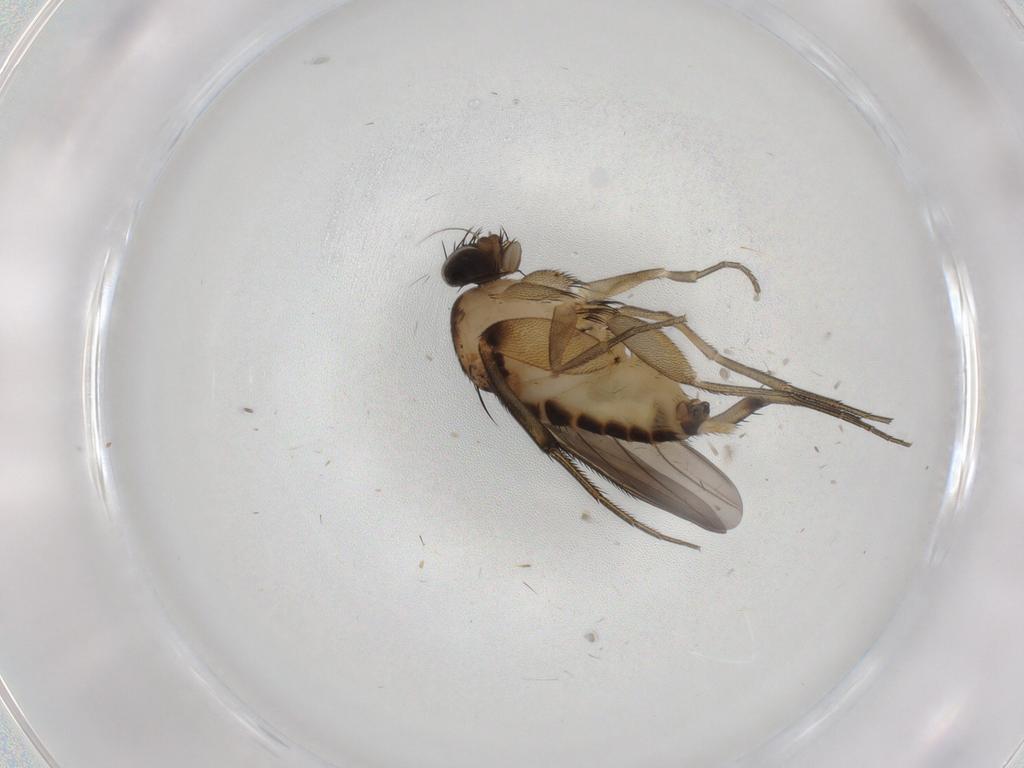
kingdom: Animalia
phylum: Arthropoda
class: Insecta
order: Diptera
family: Phoridae
